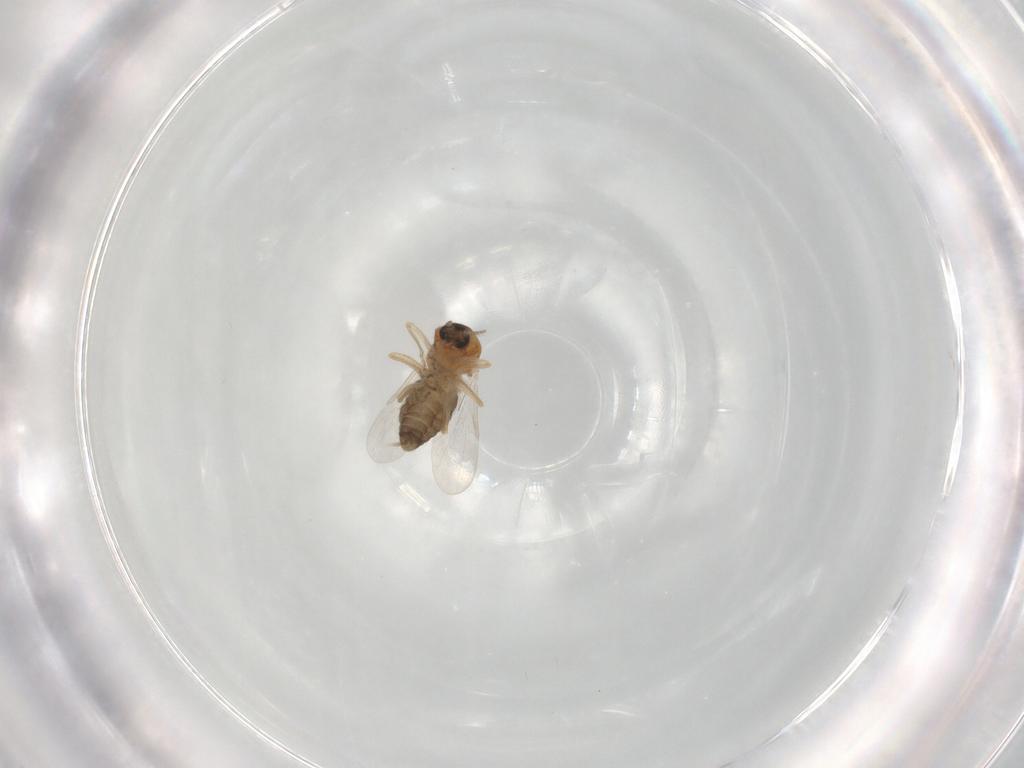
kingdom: Animalia
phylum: Arthropoda
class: Insecta
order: Diptera
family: Ceratopogonidae
